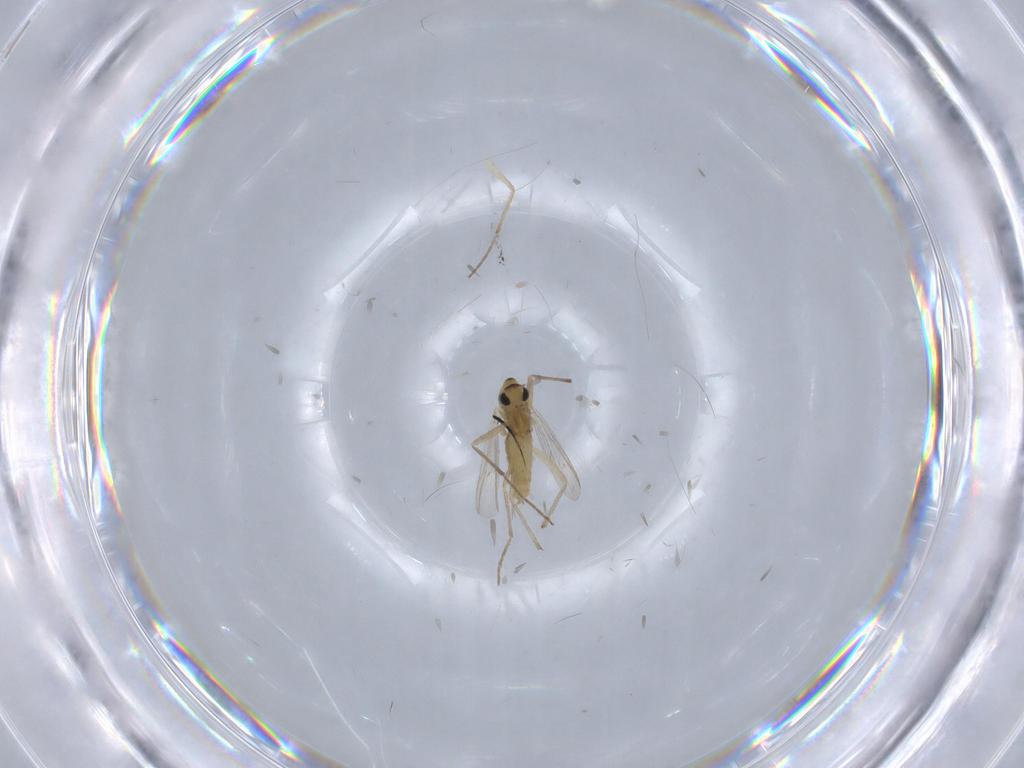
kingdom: Animalia
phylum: Arthropoda
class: Insecta
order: Diptera
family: Chironomidae
